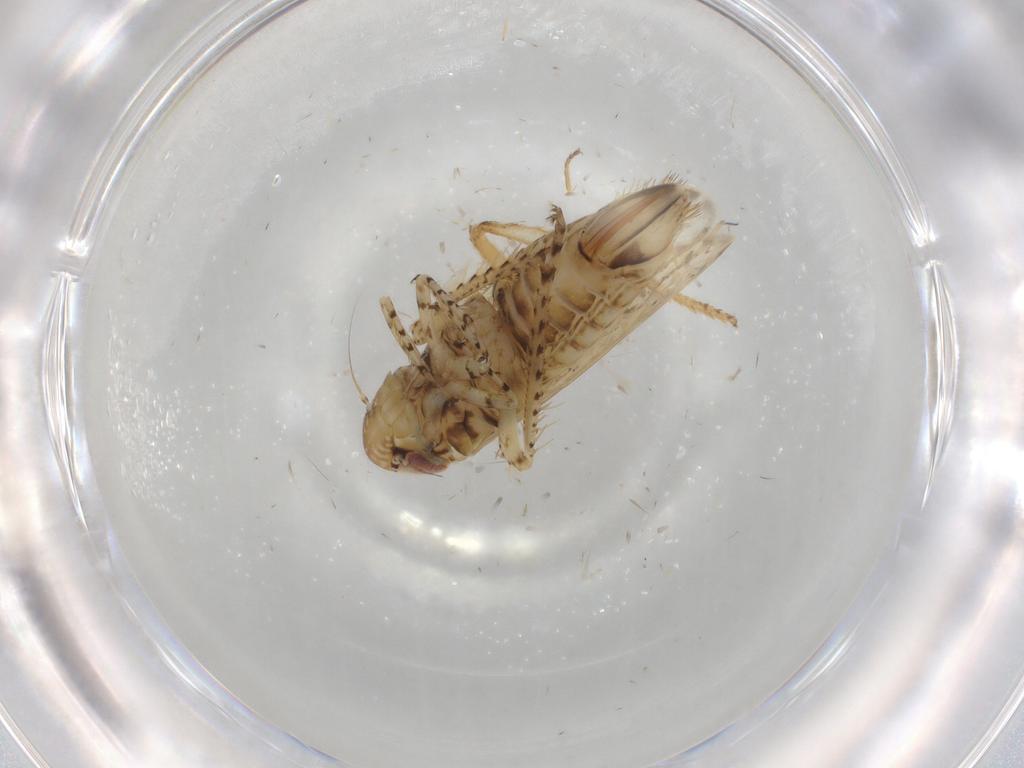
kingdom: Animalia
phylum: Arthropoda
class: Insecta
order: Hemiptera
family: Cicadellidae
